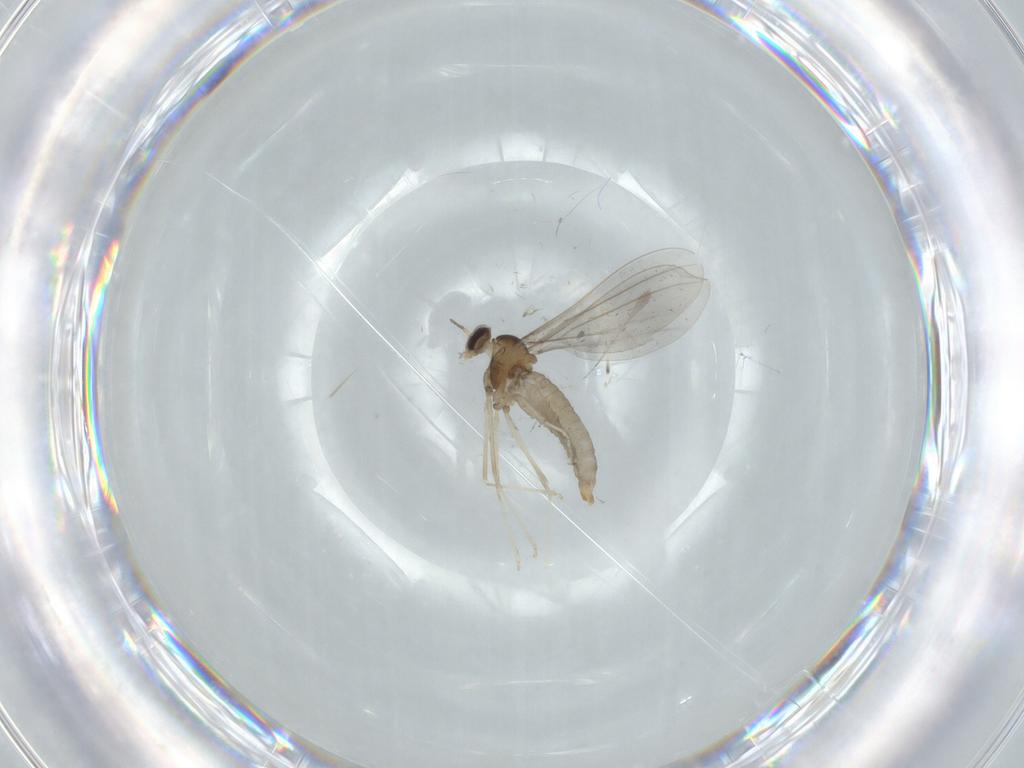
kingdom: Animalia
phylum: Arthropoda
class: Insecta
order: Diptera
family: Cecidomyiidae
